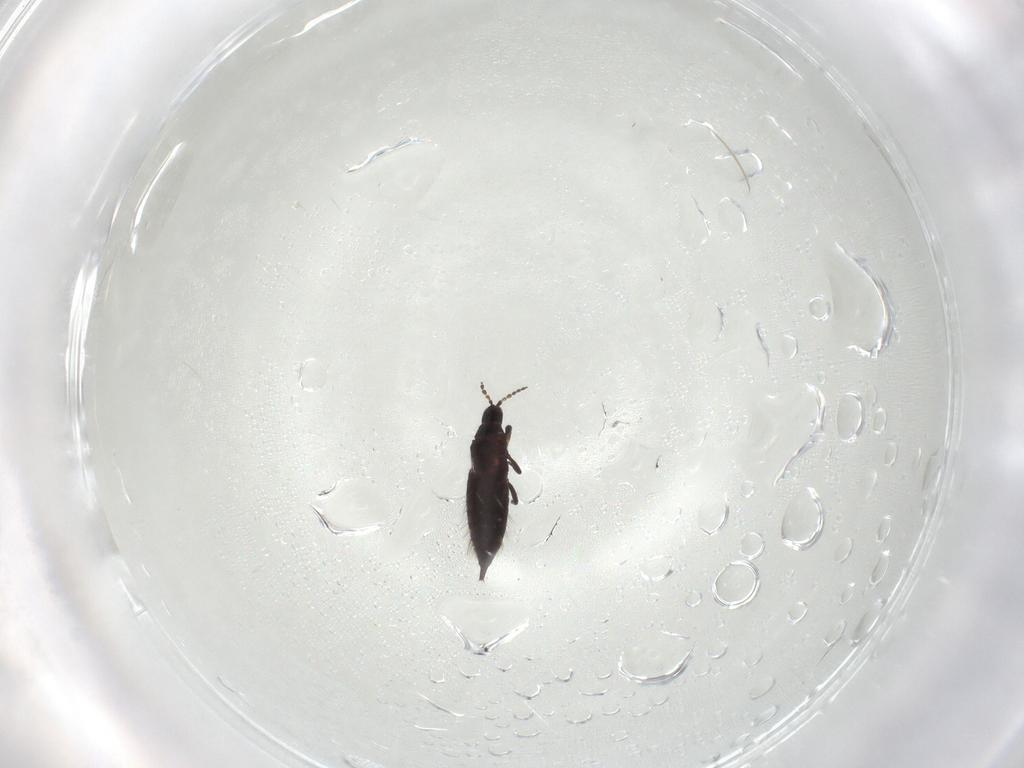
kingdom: Animalia
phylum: Arthropoda
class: Insecta
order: Thysanoptera
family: Phlaeothripidae
